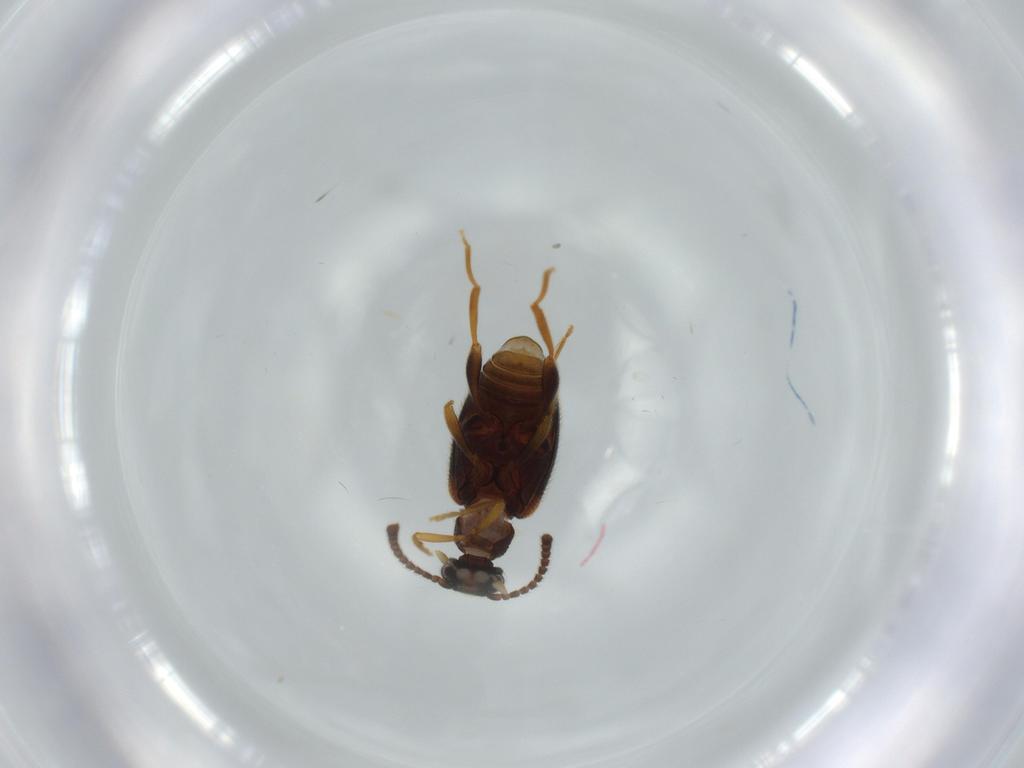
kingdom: Animalia
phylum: Arthropoda
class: Insecta
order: Coleoptera
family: Aderidae
